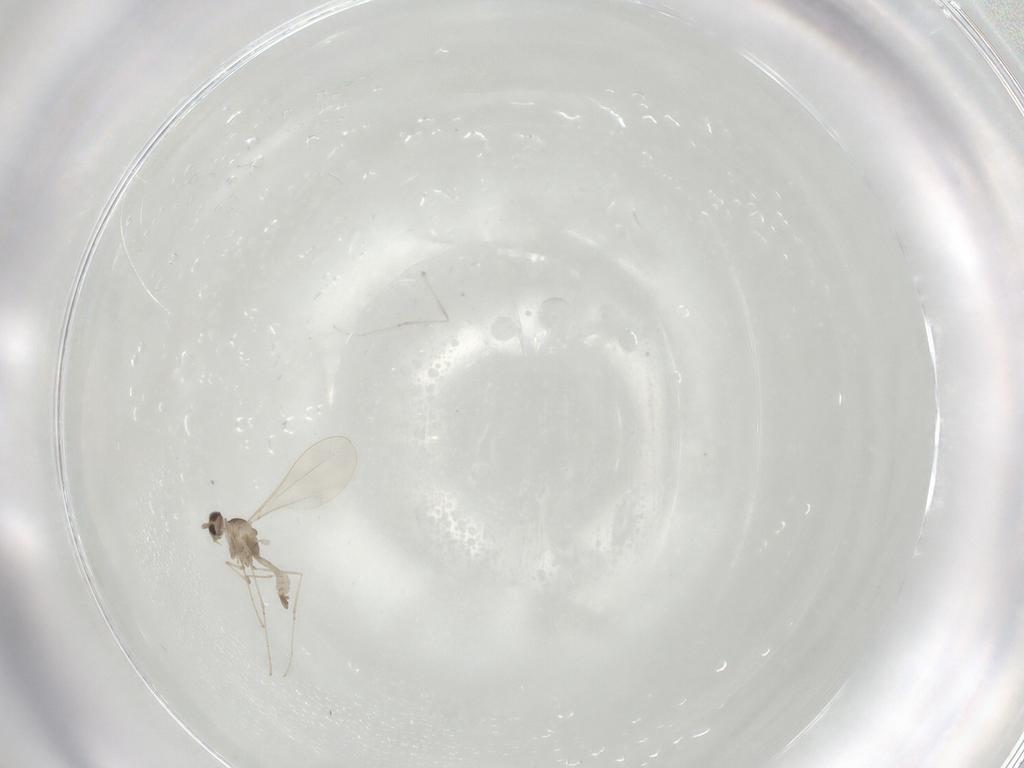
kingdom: Animalia
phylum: Arthropoda
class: Insecta
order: Diptera
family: Cecidomyiidae
